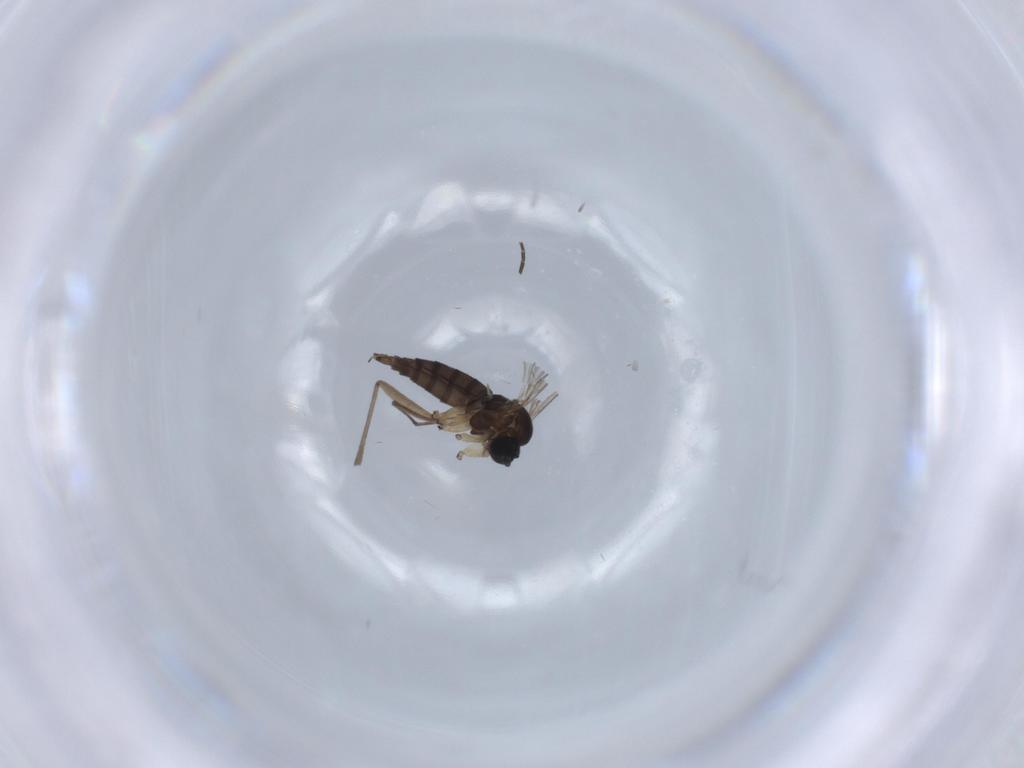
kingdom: Animalia
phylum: Arthropoda
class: Insecta
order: Diptera
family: Sciaridae
